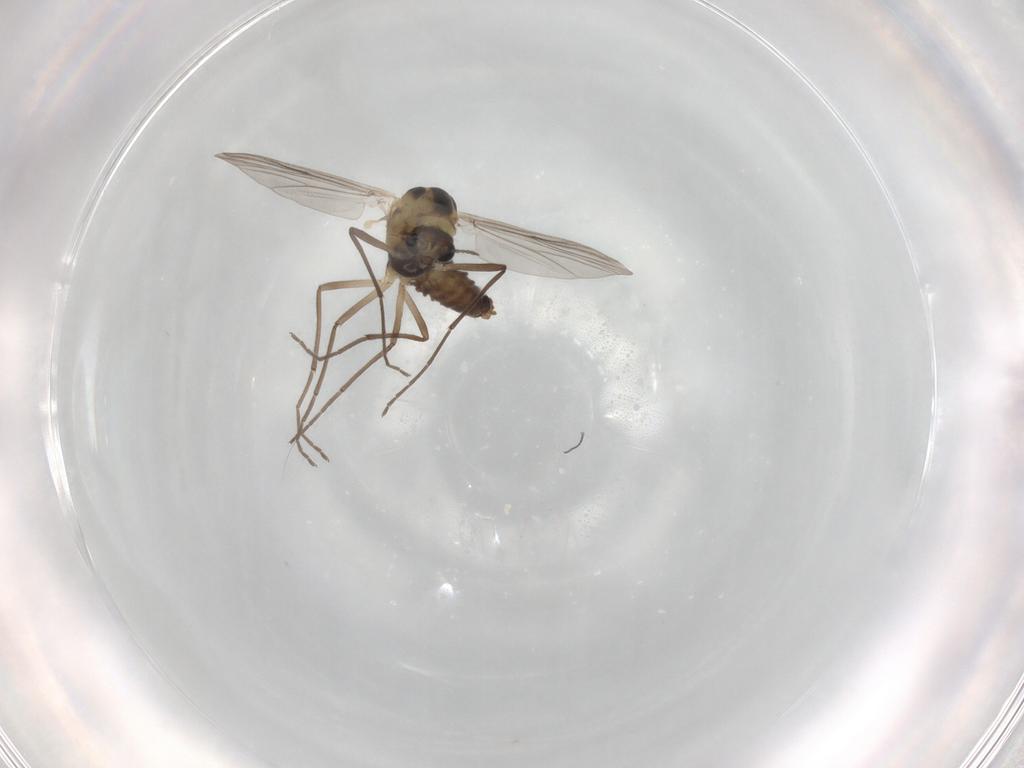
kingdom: Animalia
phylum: Arthropoda
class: Insecta
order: Diptera
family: Chironomidae
